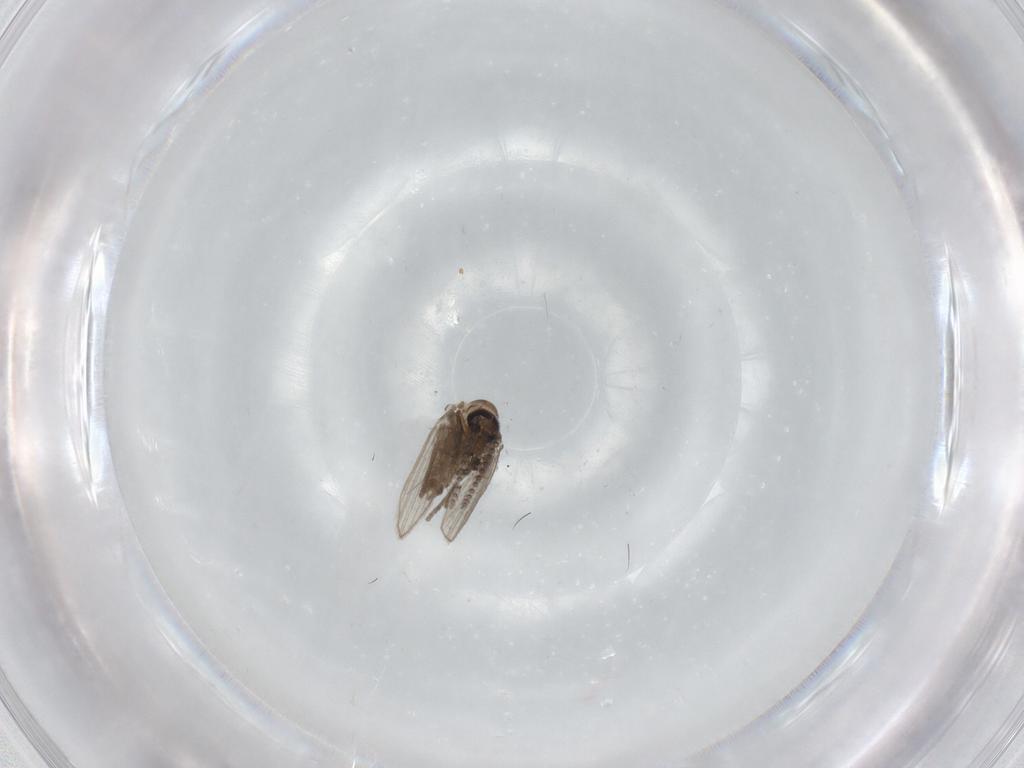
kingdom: Animalia
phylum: Arthropoda
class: Insecta
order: Diptera
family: Psychodidae
